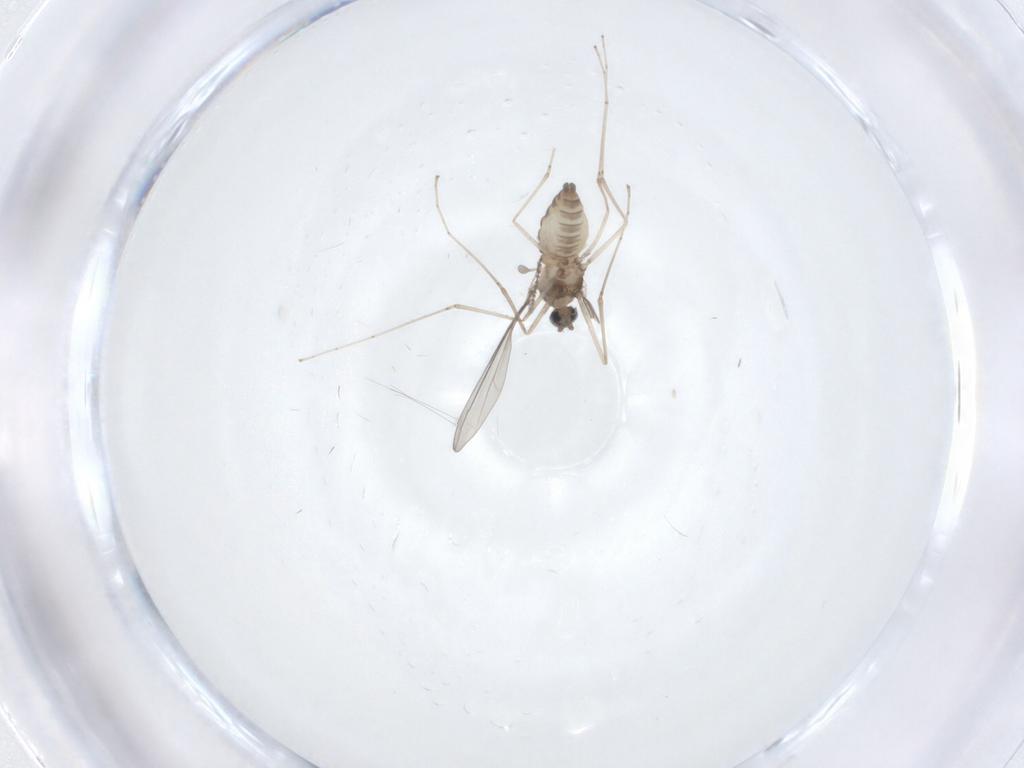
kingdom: Animalia
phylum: Arthropoda
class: Insecta
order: Diptera
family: Cecidomyiidae
